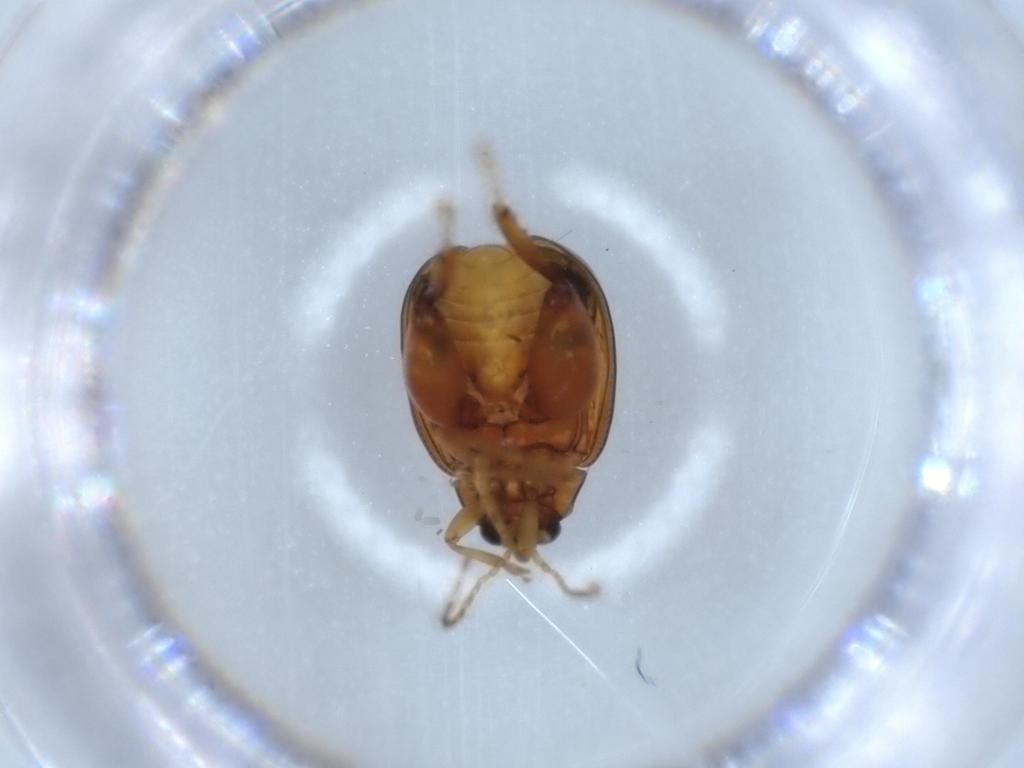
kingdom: Animalia
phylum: Arthropoda
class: Insecta
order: Coleoptera
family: Chrysomelidae
